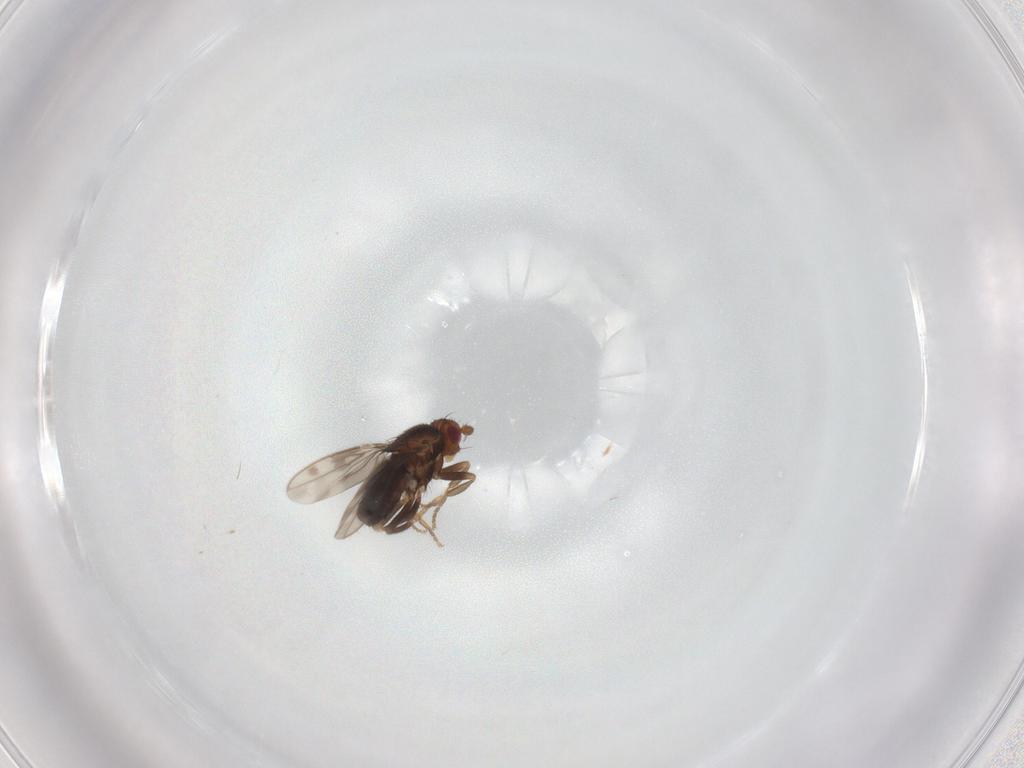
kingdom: Animalia
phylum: Arthropoda
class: Insecta
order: Diptera
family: Sphaeroceridae
